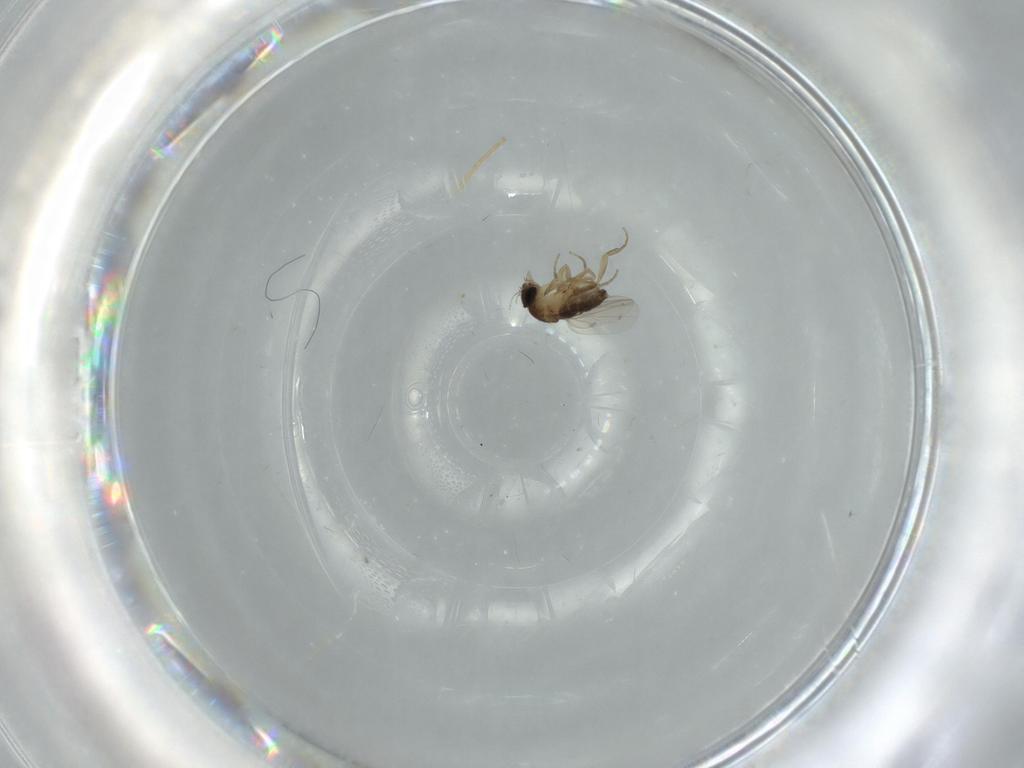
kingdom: Animalia
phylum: Arthropoda
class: Insecta
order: Diptera
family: Phoridae
